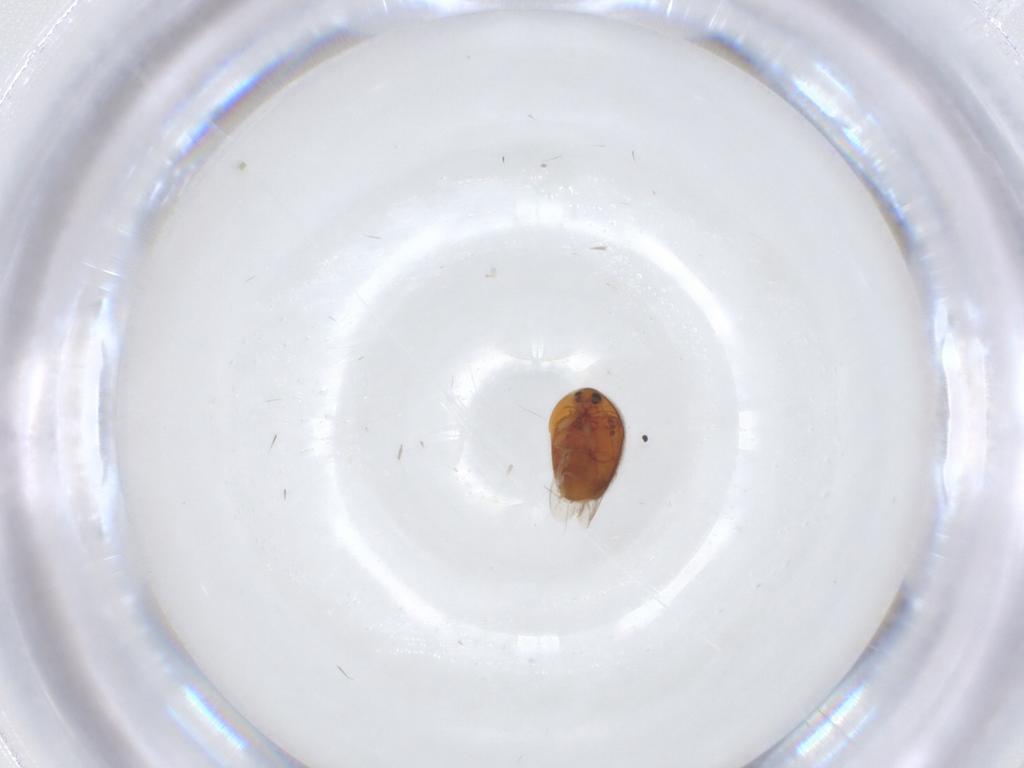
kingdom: Animalia
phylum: Arthropoda
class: Insecta
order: Coleoptera
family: Corylophidae
